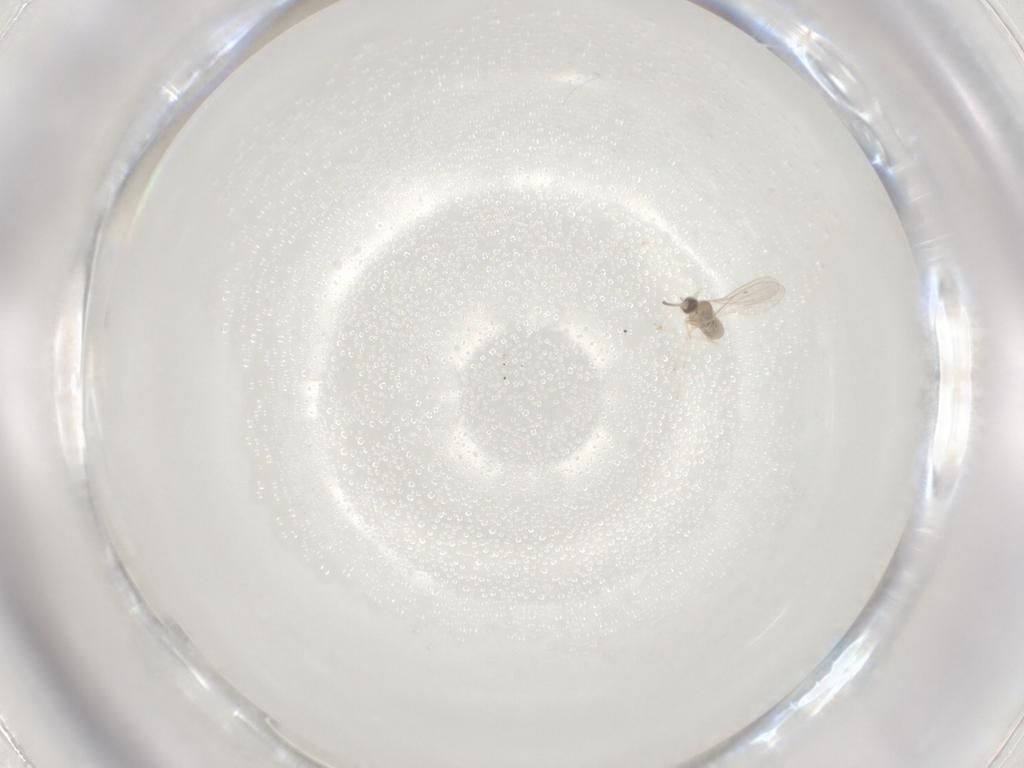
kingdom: Animalia
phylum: Arthropoda
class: Insecta
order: Diptera
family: Cecidomyiidae
